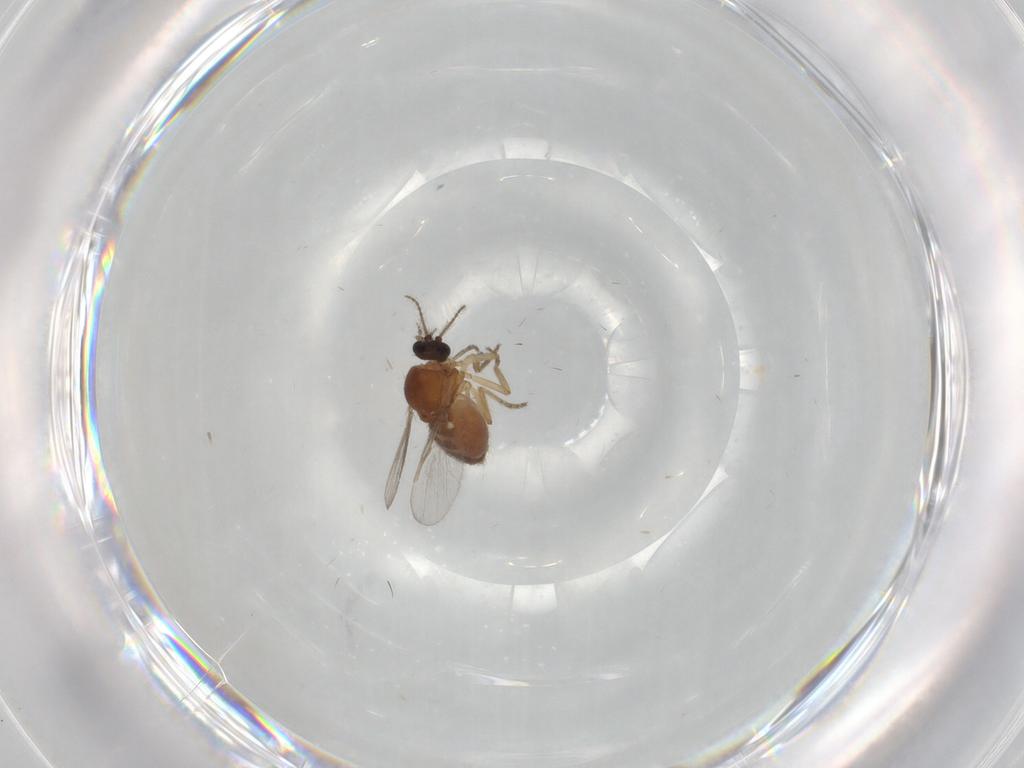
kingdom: Animalia
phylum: Arthropoda
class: Insecta
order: Diptera
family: Ceratopogonidae
